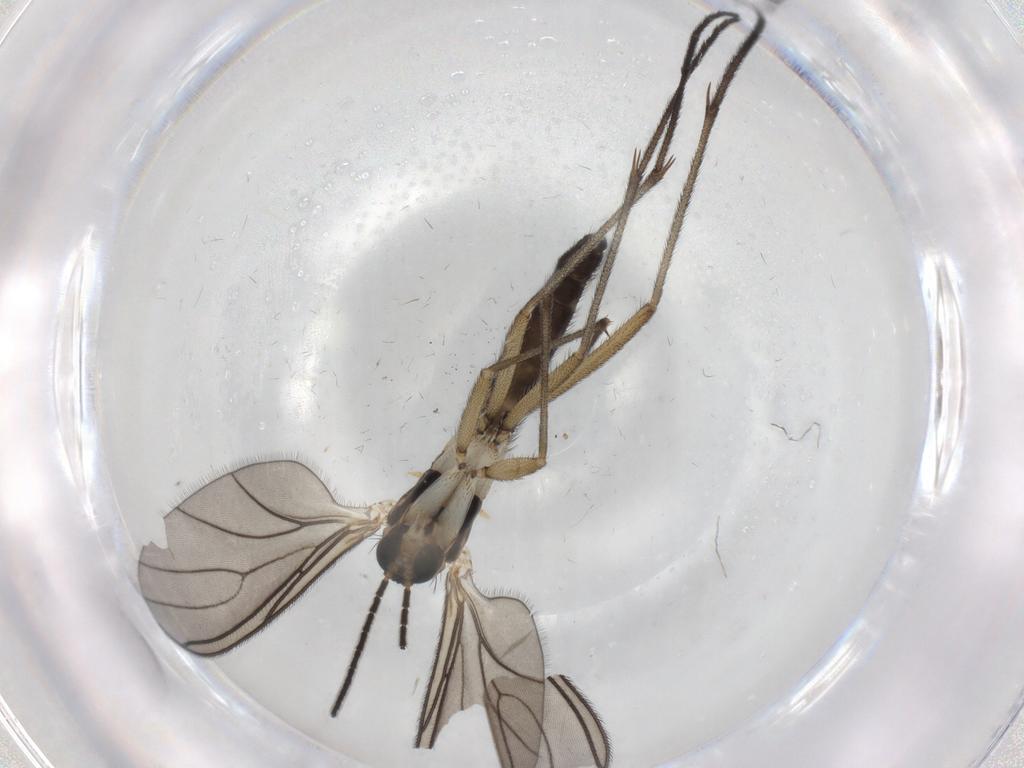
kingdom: Animalia
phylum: Arthropoda
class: Insecta
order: Diptera
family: Sciaridae
